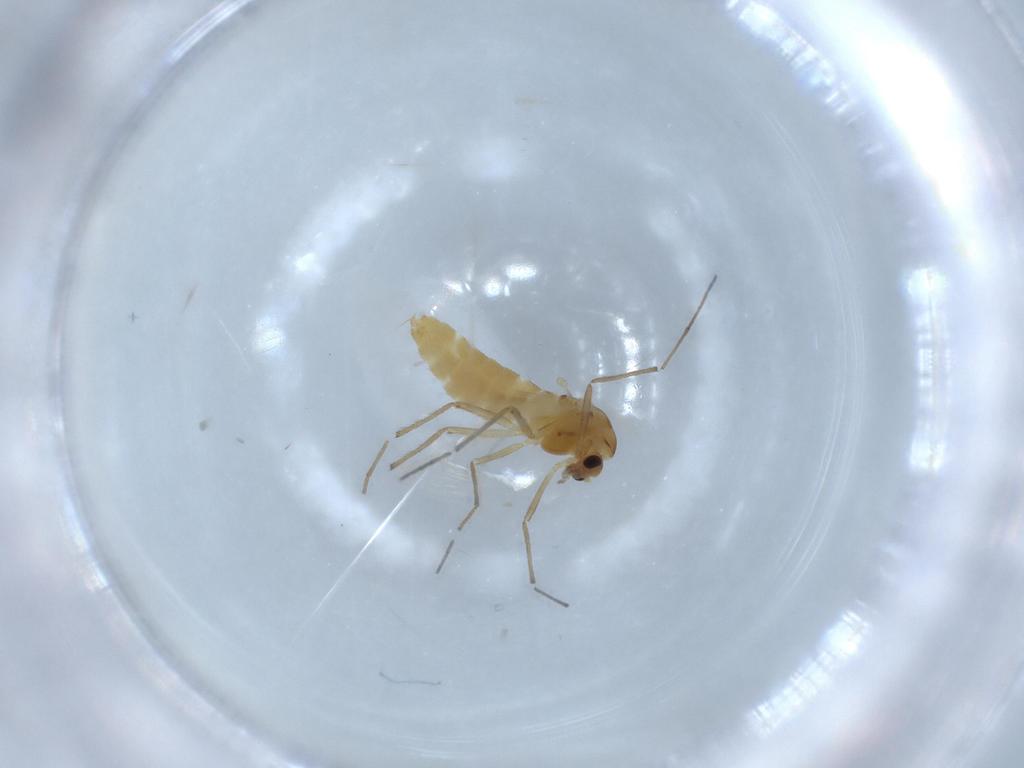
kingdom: Animalia
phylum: Arthropoda
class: Insecta
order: Diptera
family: Chironomidae
